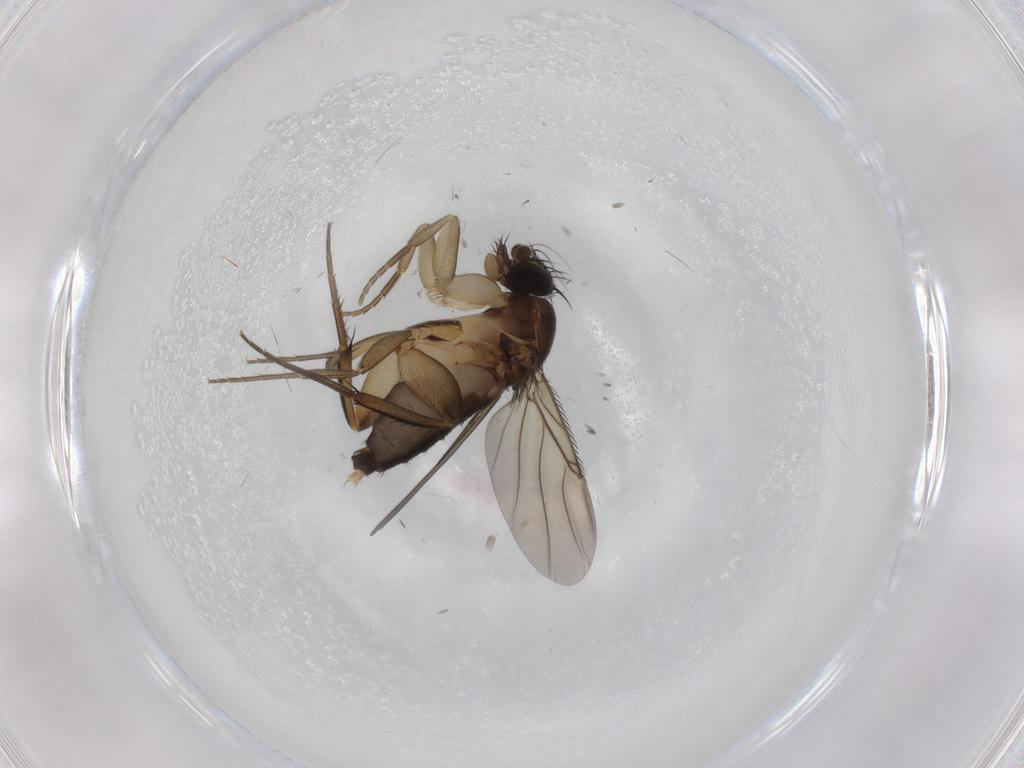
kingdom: Animalia
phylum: Arthropoda
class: Insecta
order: Diptera
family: Phoridae
